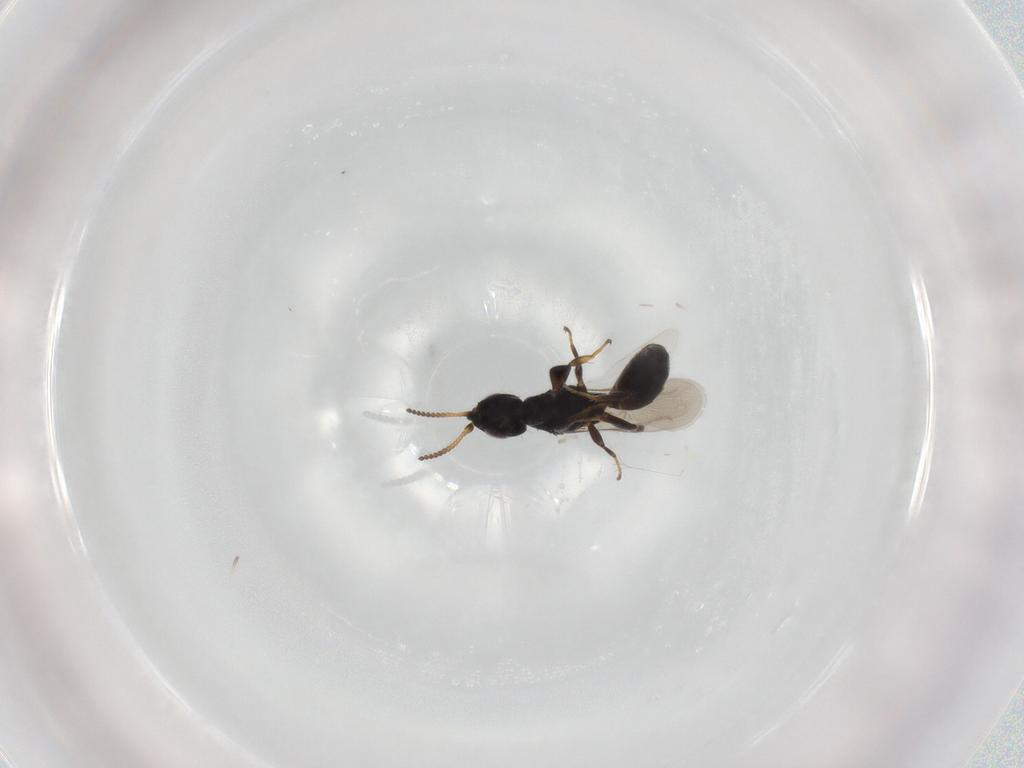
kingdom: Animalia
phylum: Arthropoda
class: Insecta
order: Hymenoptera
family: Bethylidae
